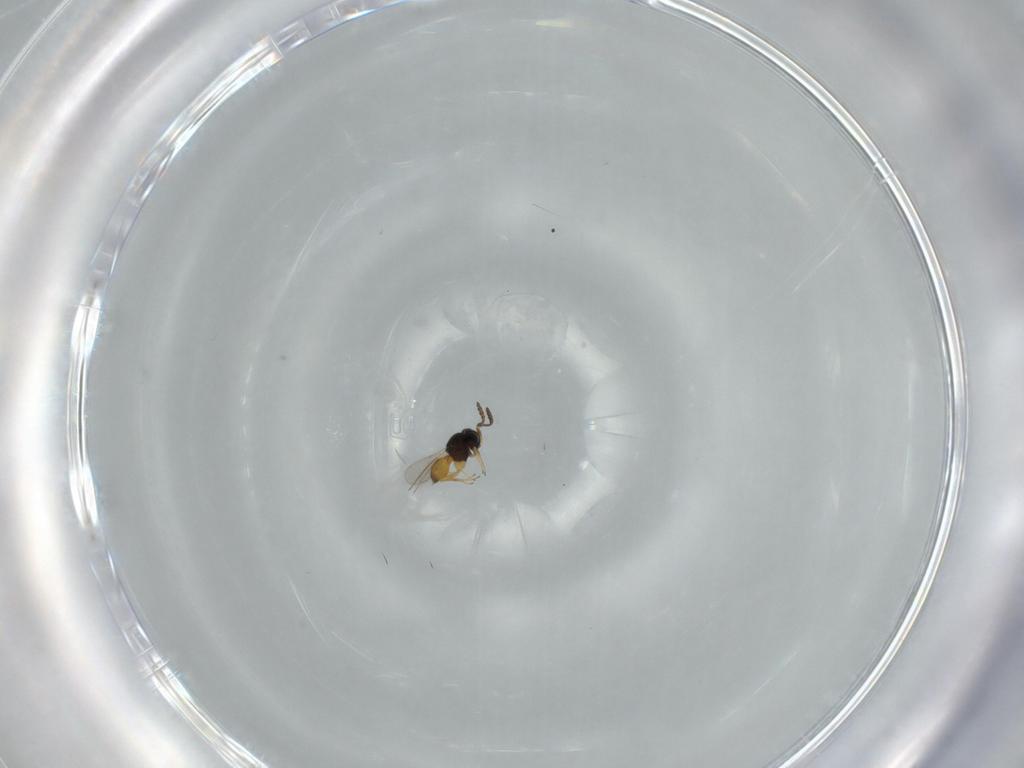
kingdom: Animalia
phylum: Arthropoda
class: Insecta
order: Hymenoptera
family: Scelionidae
